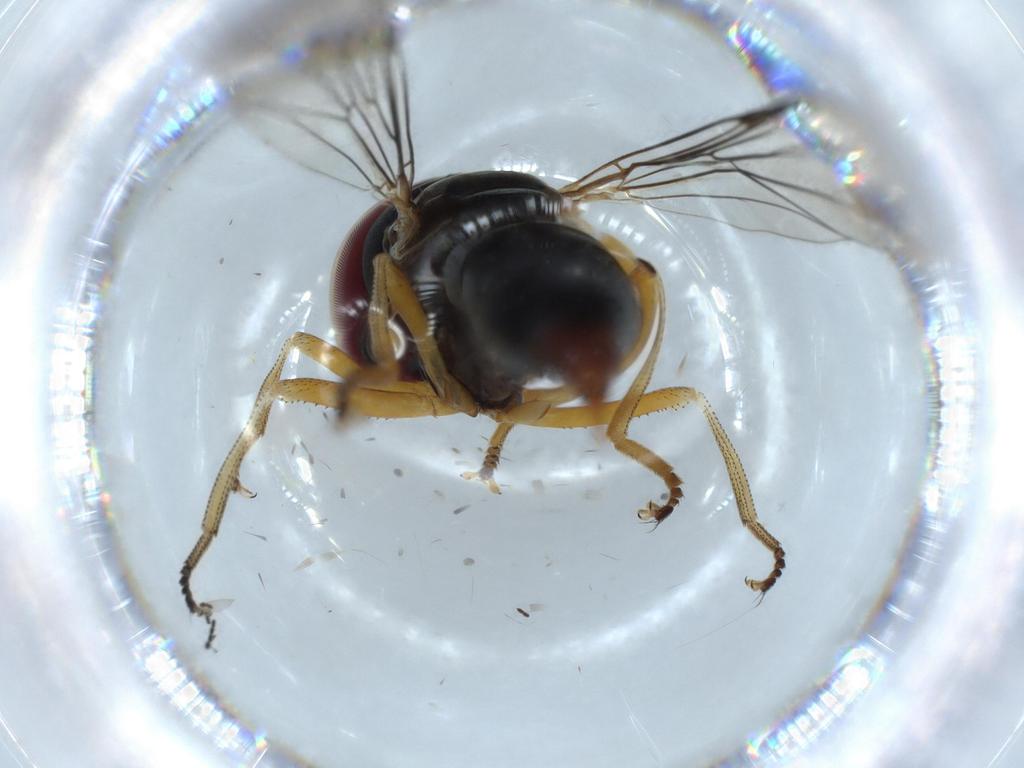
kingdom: Animalia
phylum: Arthropoda
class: Insecta
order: Diptera
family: Pipunculidae
